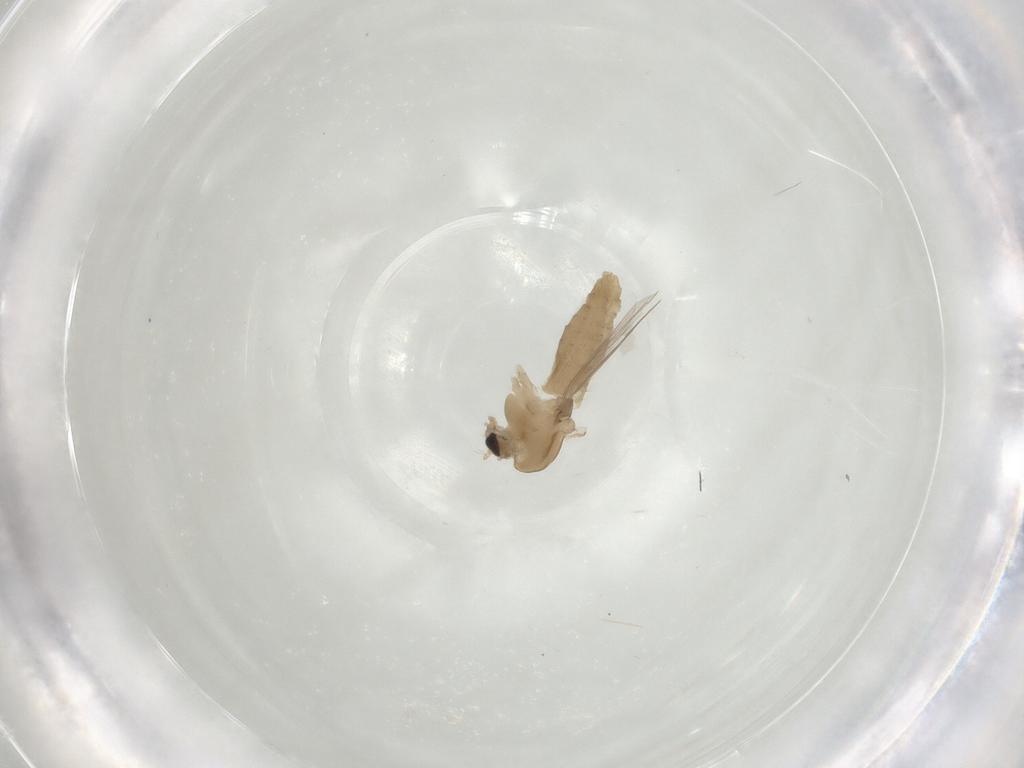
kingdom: Animalia
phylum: Arthropoda
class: Insecta
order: Diptera
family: Chironomidae
